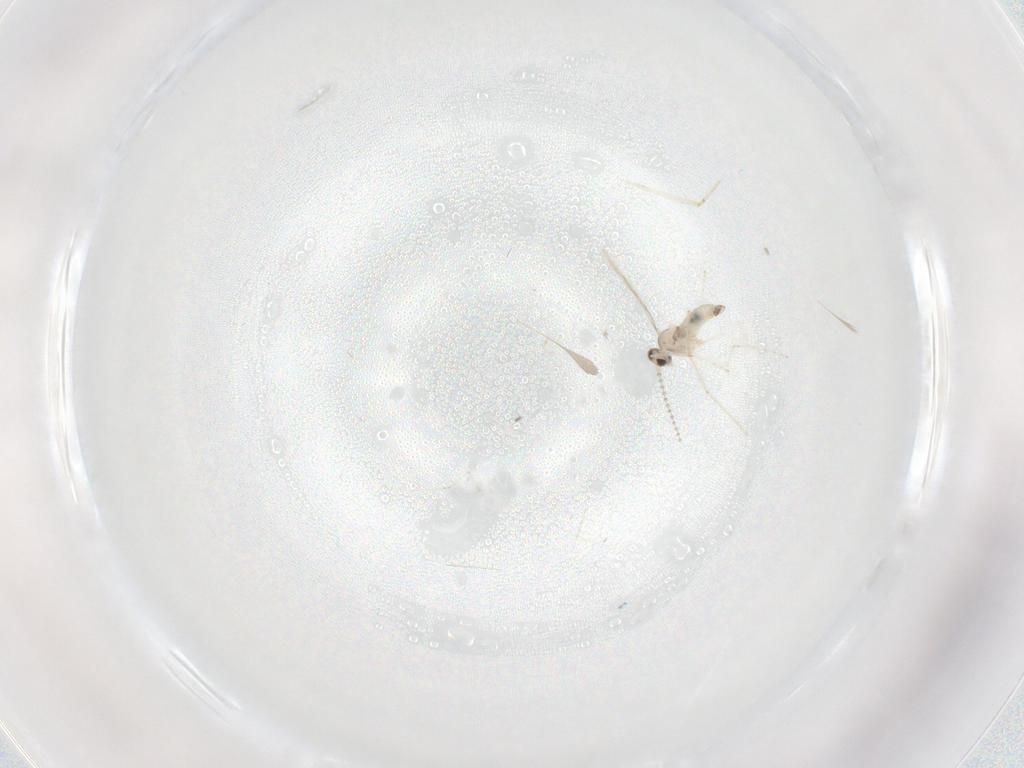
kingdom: Animalia
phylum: Arthropoda
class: Insecta
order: Diptera
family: Cecidomyiidae
